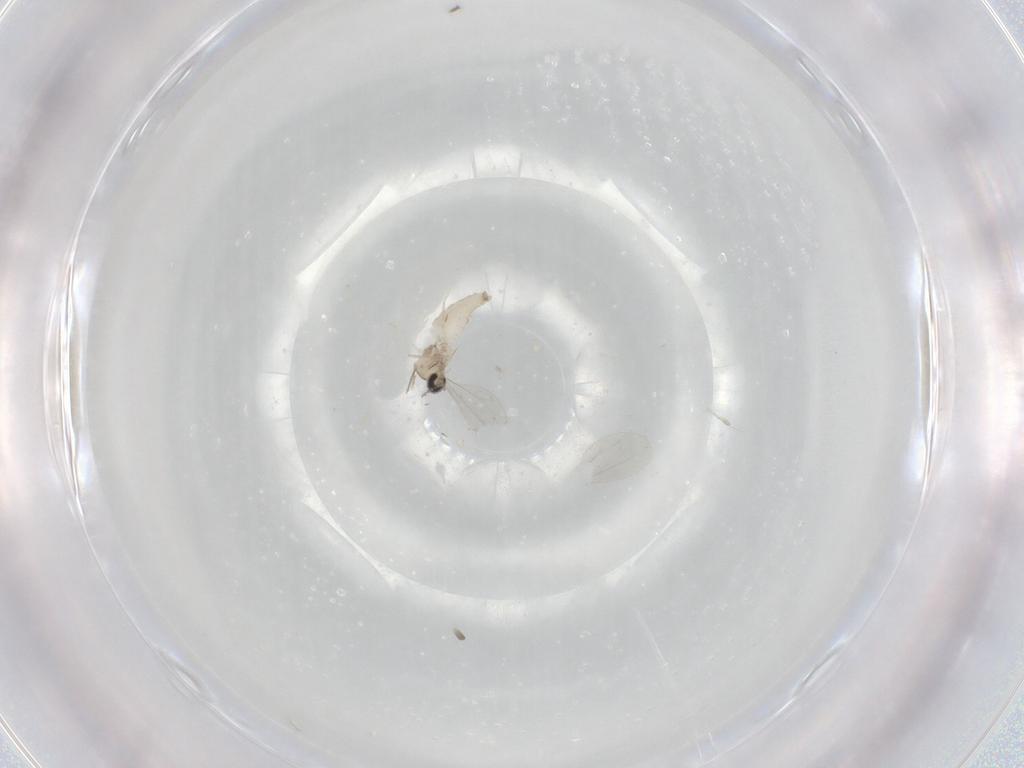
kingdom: Animalia
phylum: Arthropoda
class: Insecta
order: Diptera
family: Cecidomyiidae
